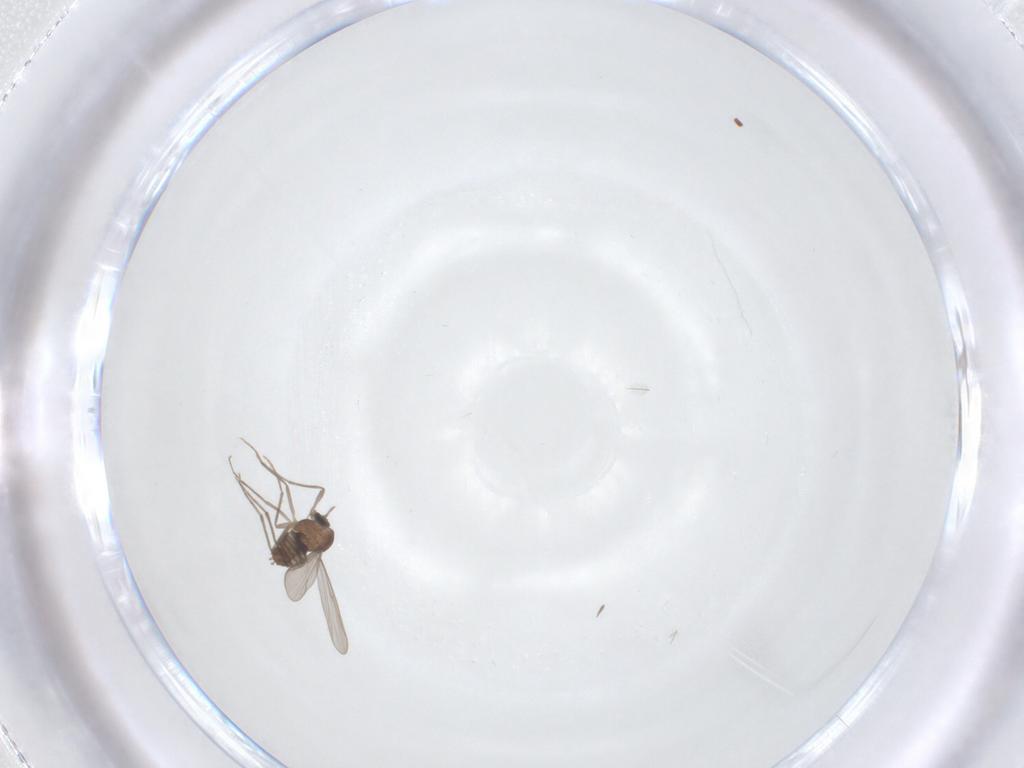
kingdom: Animalia
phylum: Arthropoda
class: Insecta
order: Diptera
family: Chironomidae
